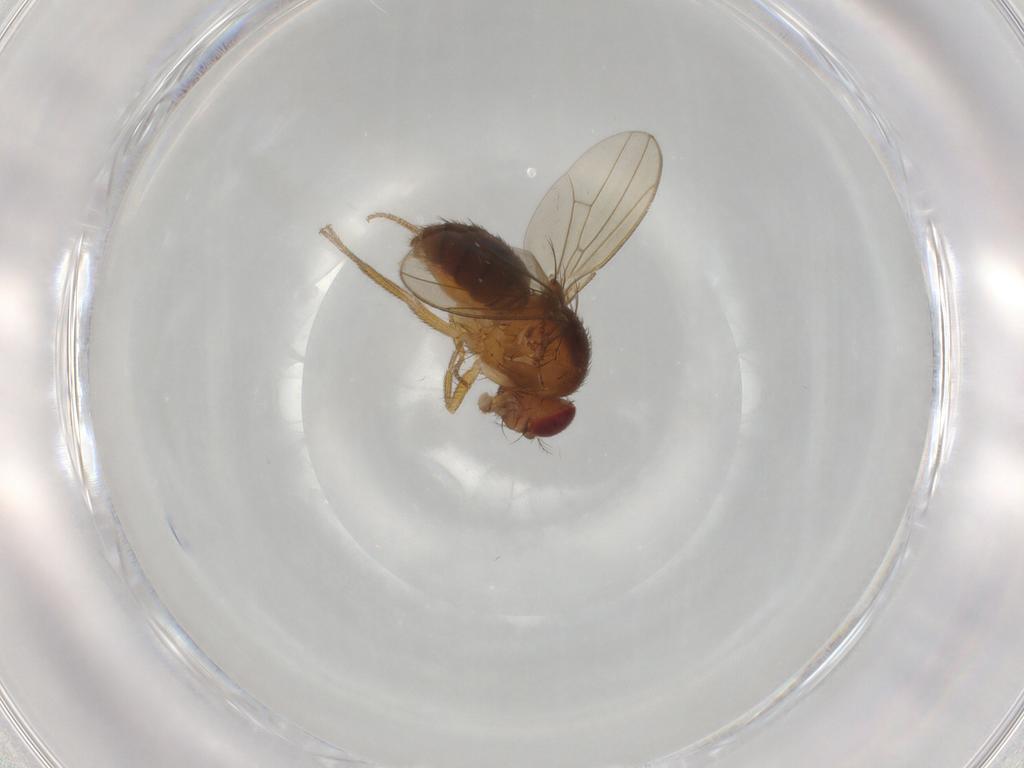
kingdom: Animalia
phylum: Arthropoda
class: Insecta
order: Diptera
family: Drosophilidae
